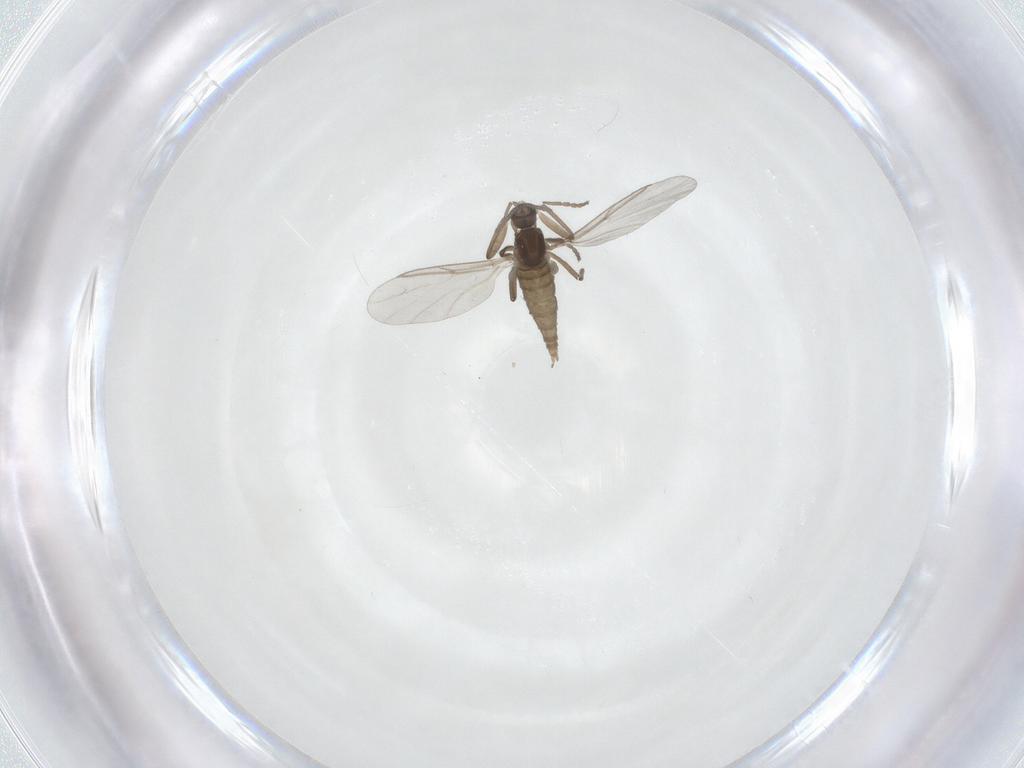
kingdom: Animalia
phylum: Arthropoda
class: Insecta
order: Diptera
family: Cecidomyiidae
